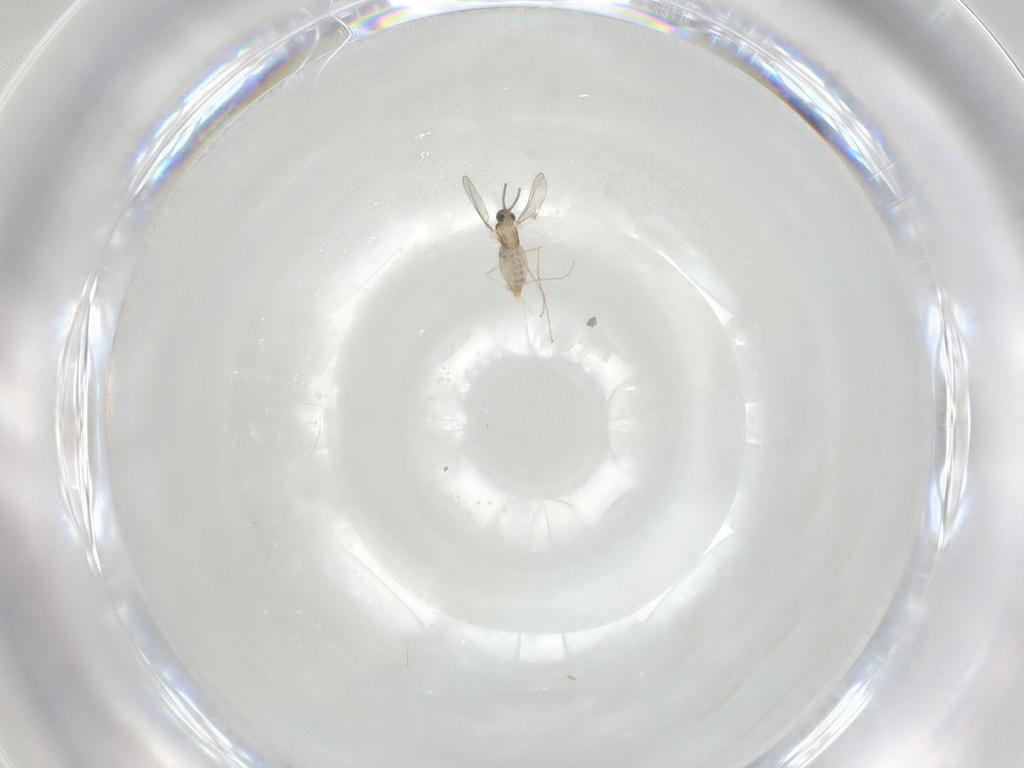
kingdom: Animalia
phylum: Arthropoda
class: Insecta
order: Diptera
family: Cecidomyiidae
